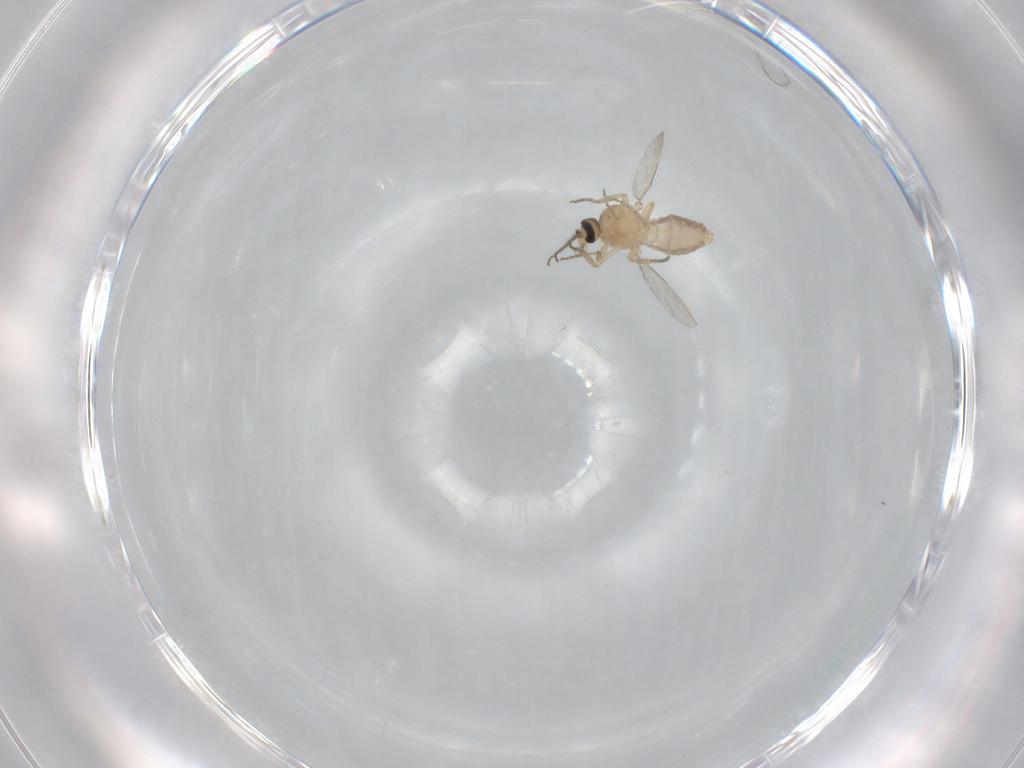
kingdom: Animalia
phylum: Arthropoda
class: Insecta
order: Diptera
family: Ceratopogonidae
